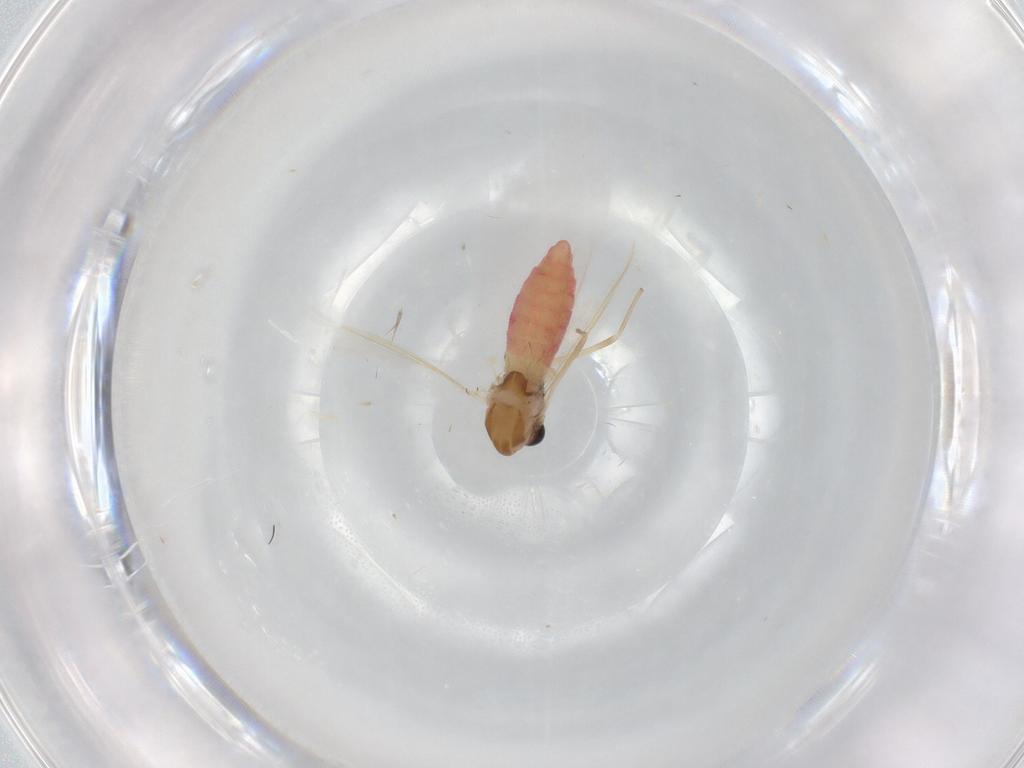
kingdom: Animalia
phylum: Arthropoda
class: Insecta
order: Diptera
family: Chironomidae
